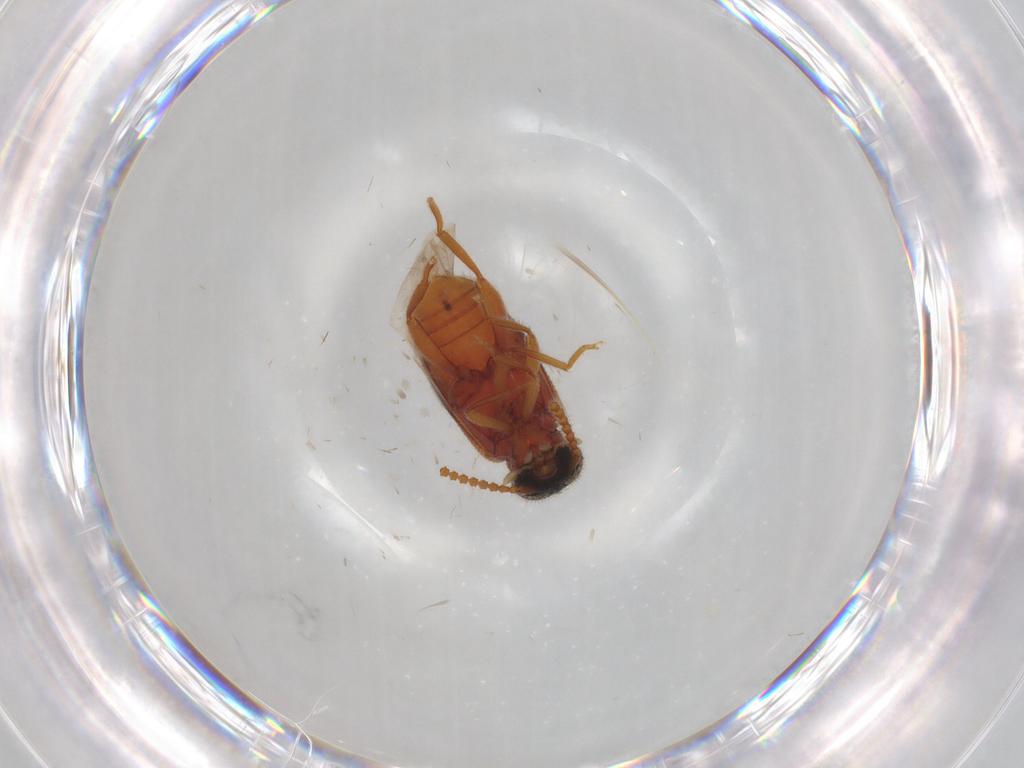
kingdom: Animalia
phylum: Arthropoda
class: Insecta
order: Coleoptera
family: Aderidae
